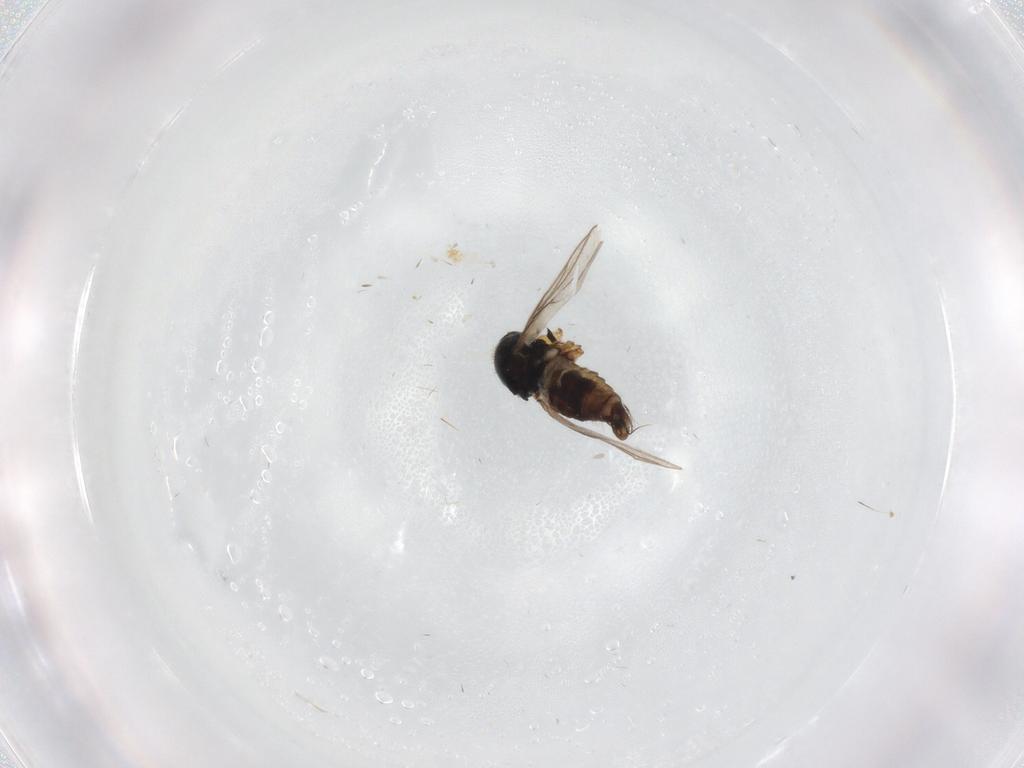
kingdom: Animalia
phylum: Arthropoda
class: Insecta
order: Diptera
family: Hybotidae
